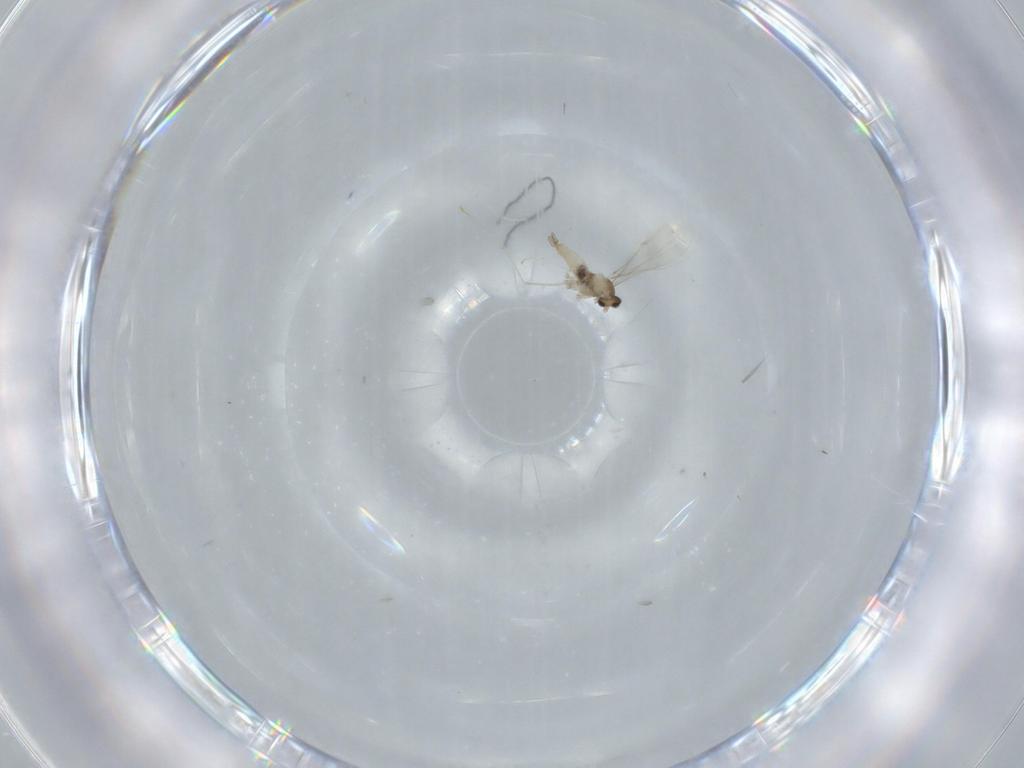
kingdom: Animalia
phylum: Arthropoda
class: Insecta
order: Diptera
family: Cecidomyiidae
